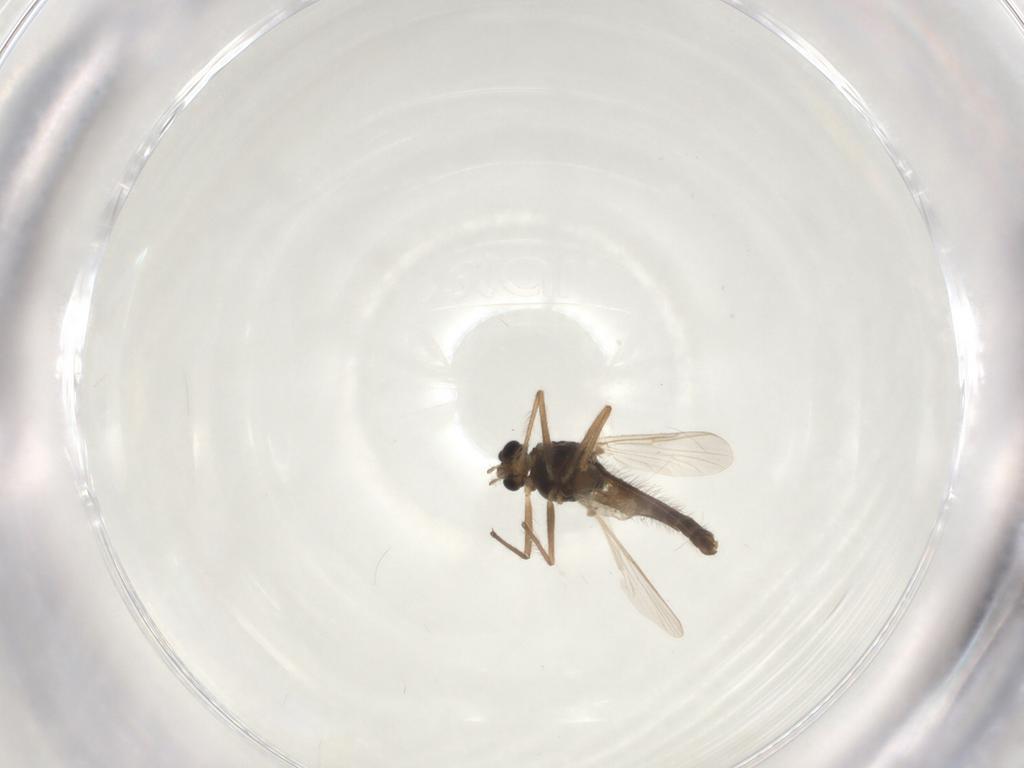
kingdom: Animalia
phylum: Arthropoda
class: Insecta
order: Diptera
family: Chironomidae
